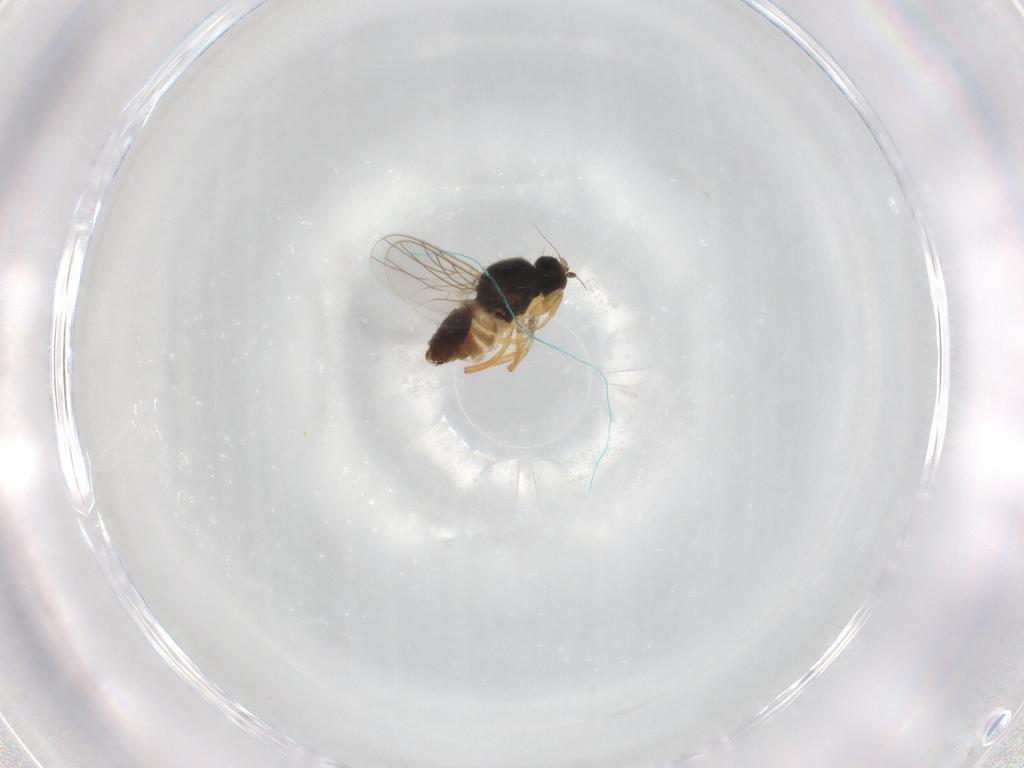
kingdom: Animalia
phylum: Arthropoda
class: Insecta
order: Diptera
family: Hybotidae
